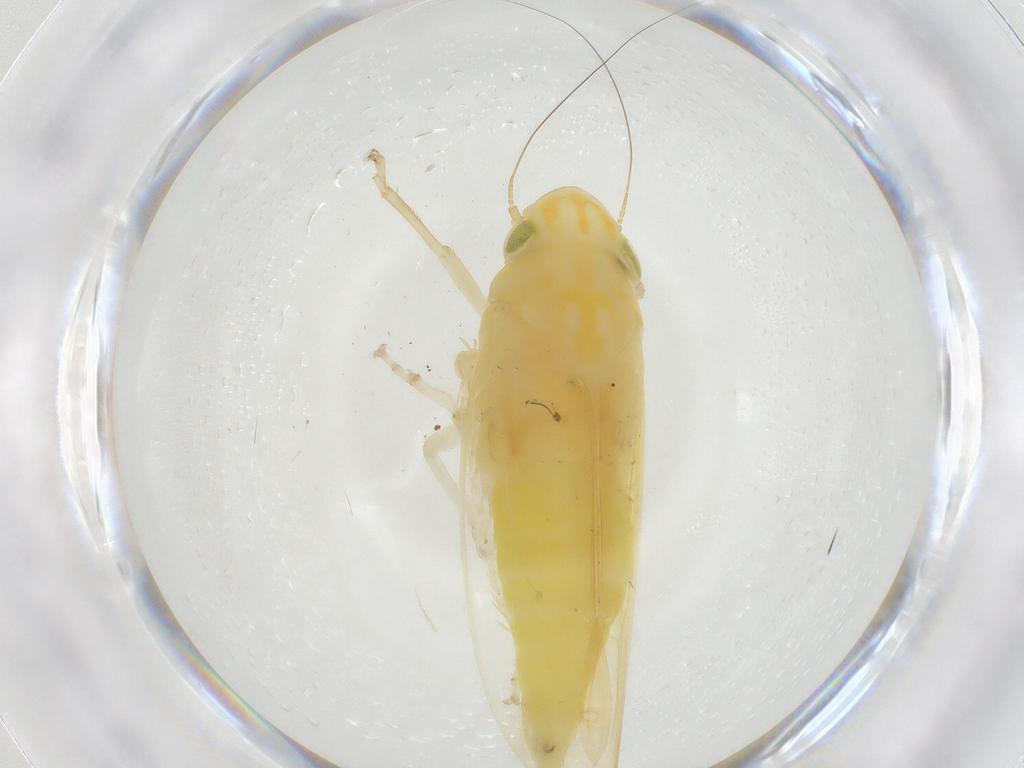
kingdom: Animalia
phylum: Arthropoda
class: Insecta
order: Hemiptera
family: Cicadellidae
